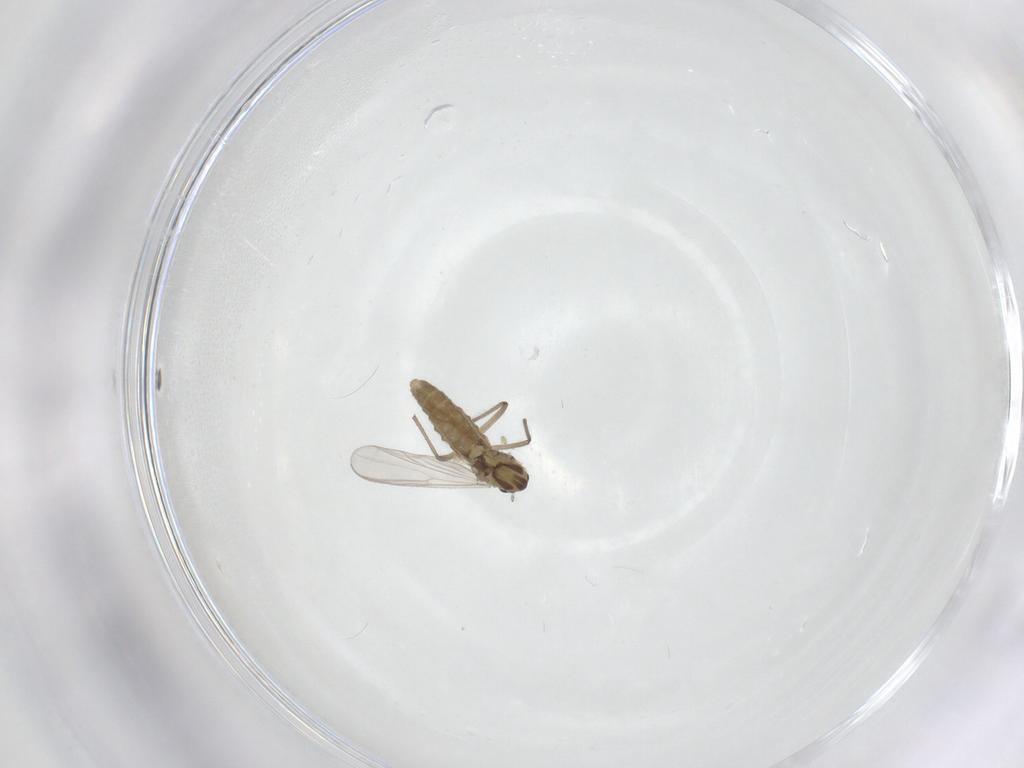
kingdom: Animalia
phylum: Arthropoda
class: Insecta
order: Diptera
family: Chironomidae
